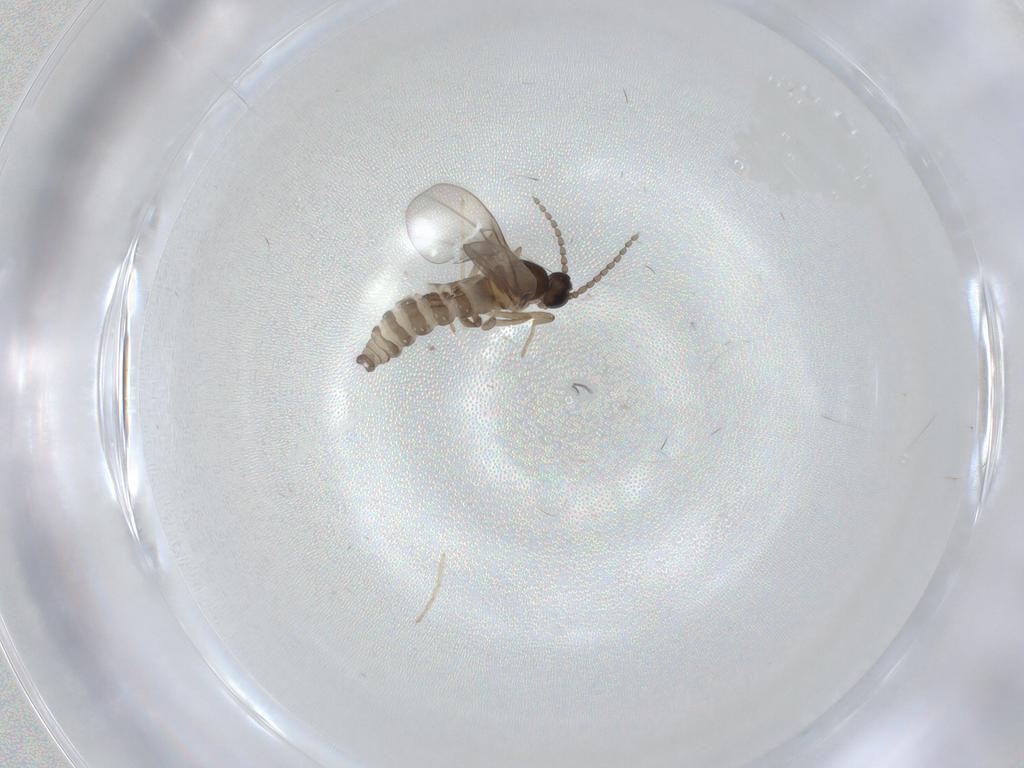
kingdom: Animalia
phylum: Arthropoda
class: Insecta
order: Diptera
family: Cecidomyiidae
